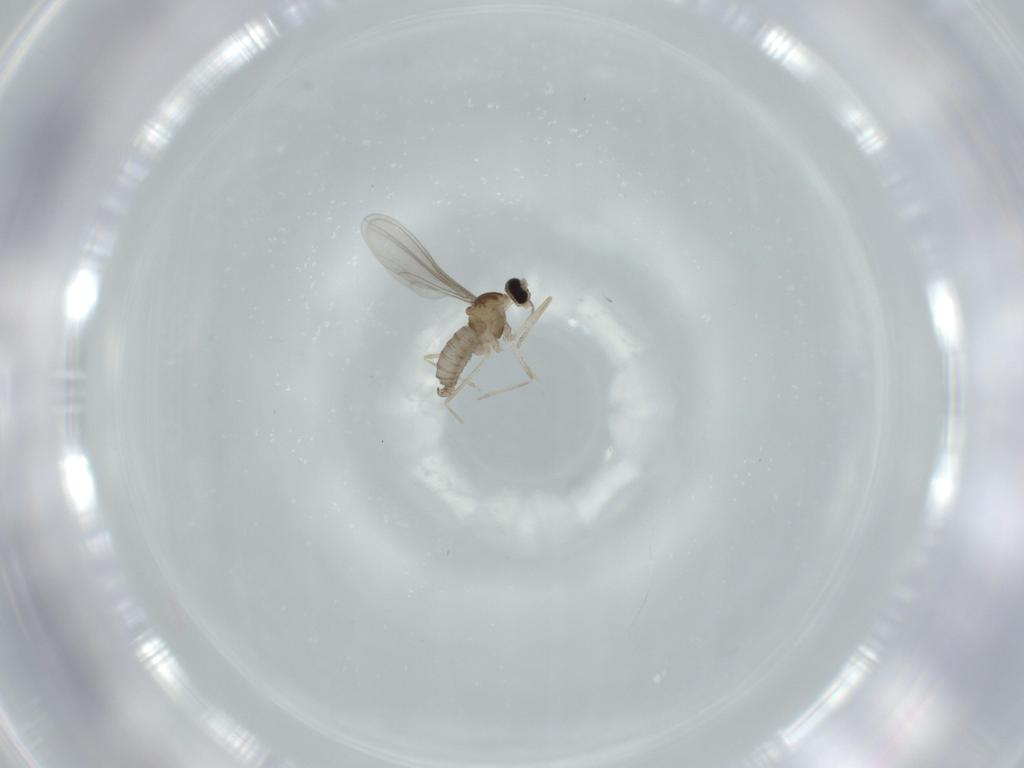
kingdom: Animalia
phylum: Arthropoda
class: Insecta
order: Diptera
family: Cecidomyiidae
